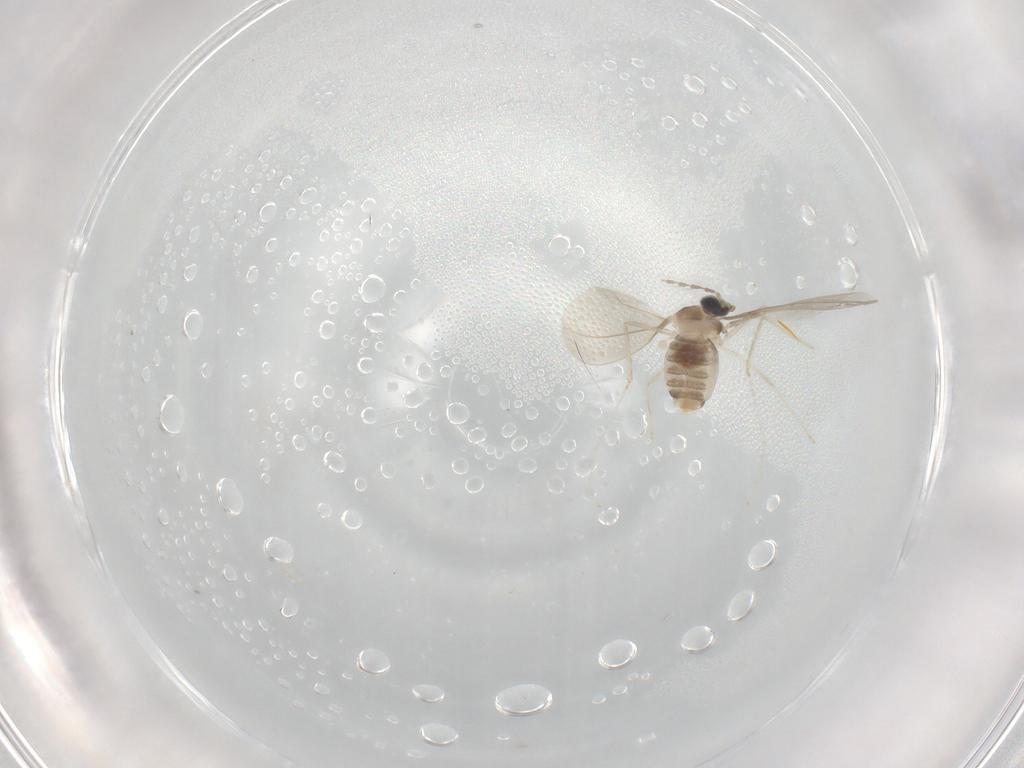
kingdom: Animalia
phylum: Arthropoda
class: Insecta
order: Diptera
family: Cecidomyiidae
